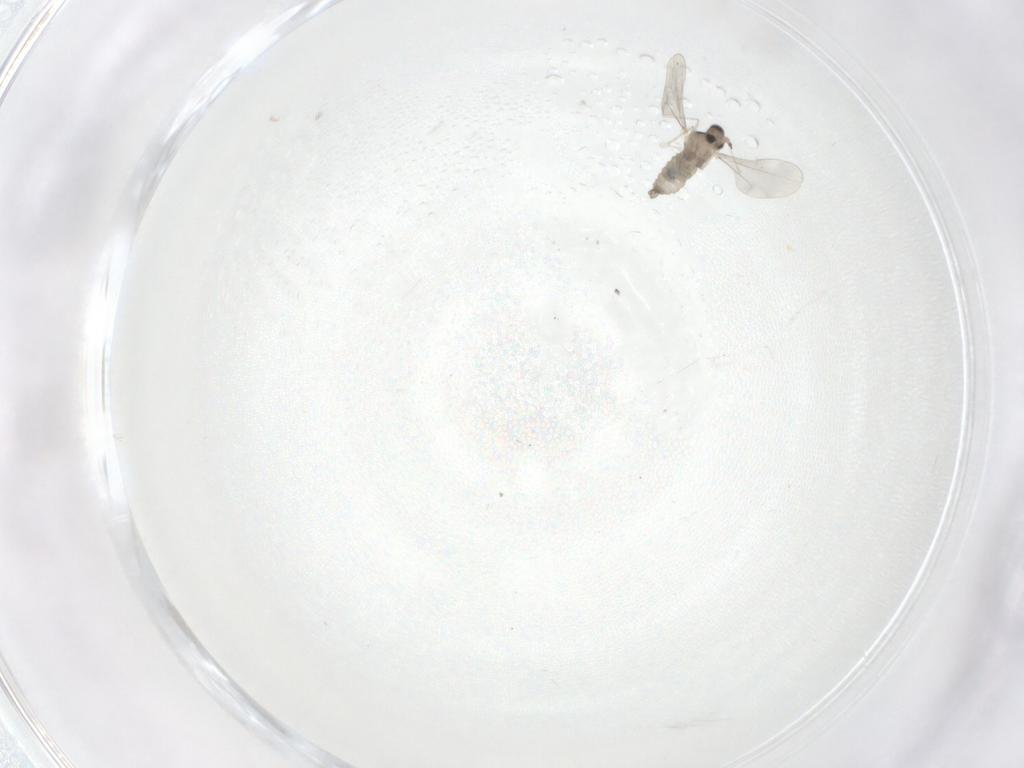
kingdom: Animalia
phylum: Arthropoda
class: Insecta
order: Diptera
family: Cecidomyiidae
